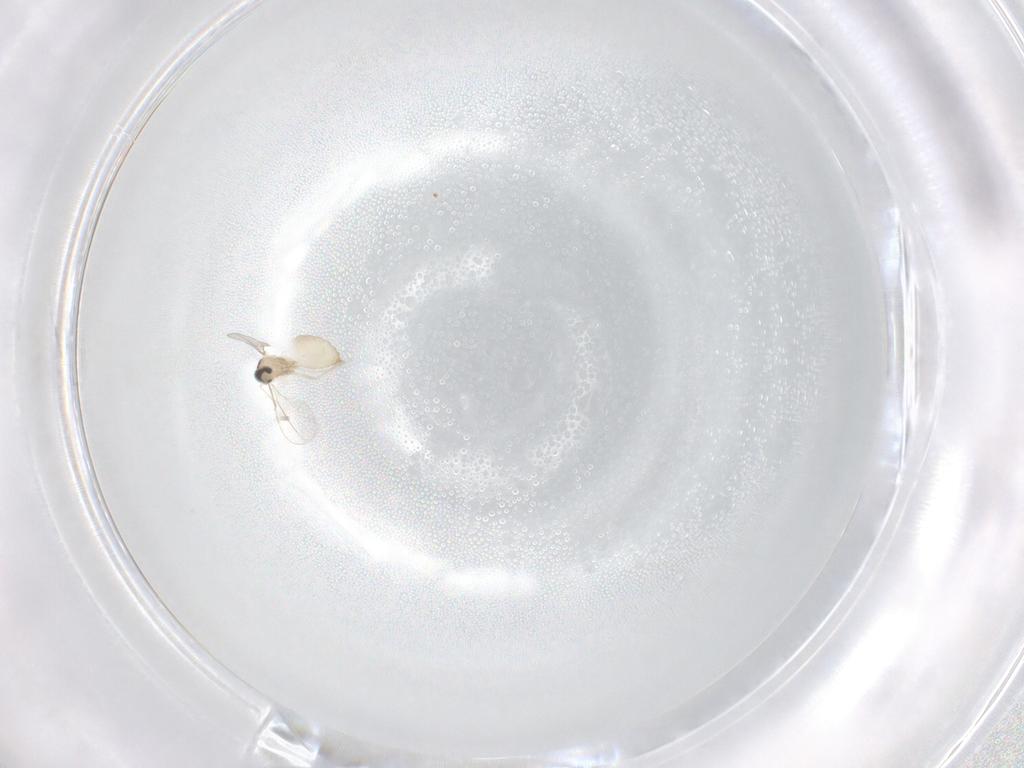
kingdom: Animalia
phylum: Arthropoda
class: Insecta
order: Diptera
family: Cecidomyiidae
